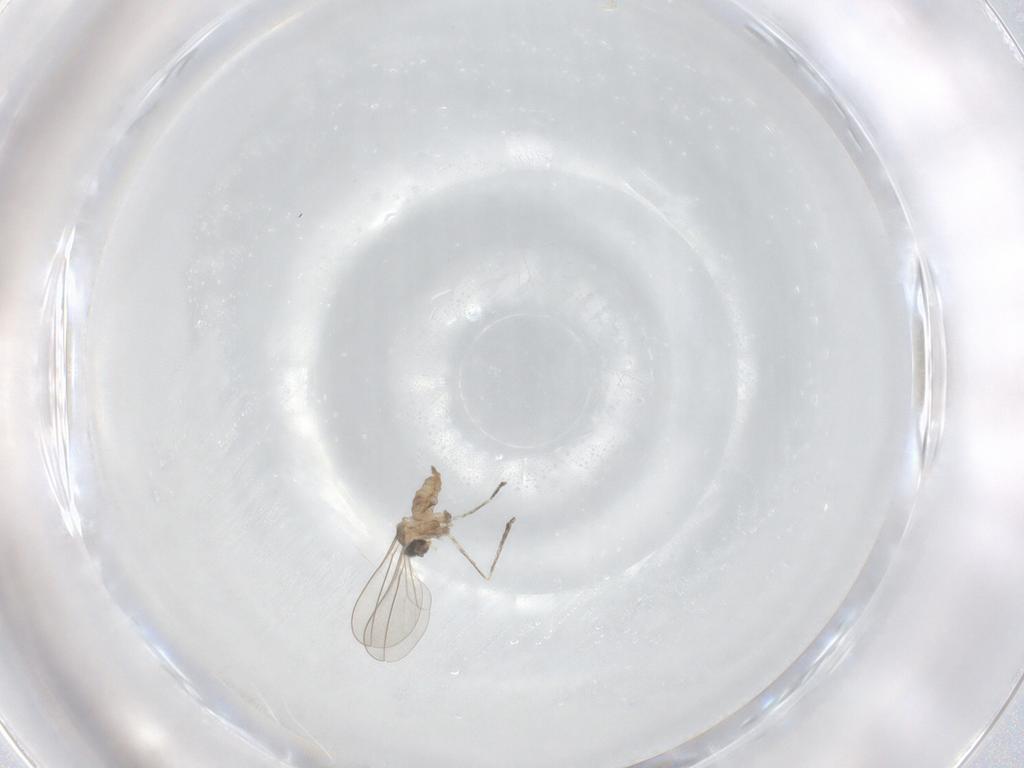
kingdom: Animalia
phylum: Arthropoda
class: Insecta
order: Diptera
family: Cecidomyiidae
